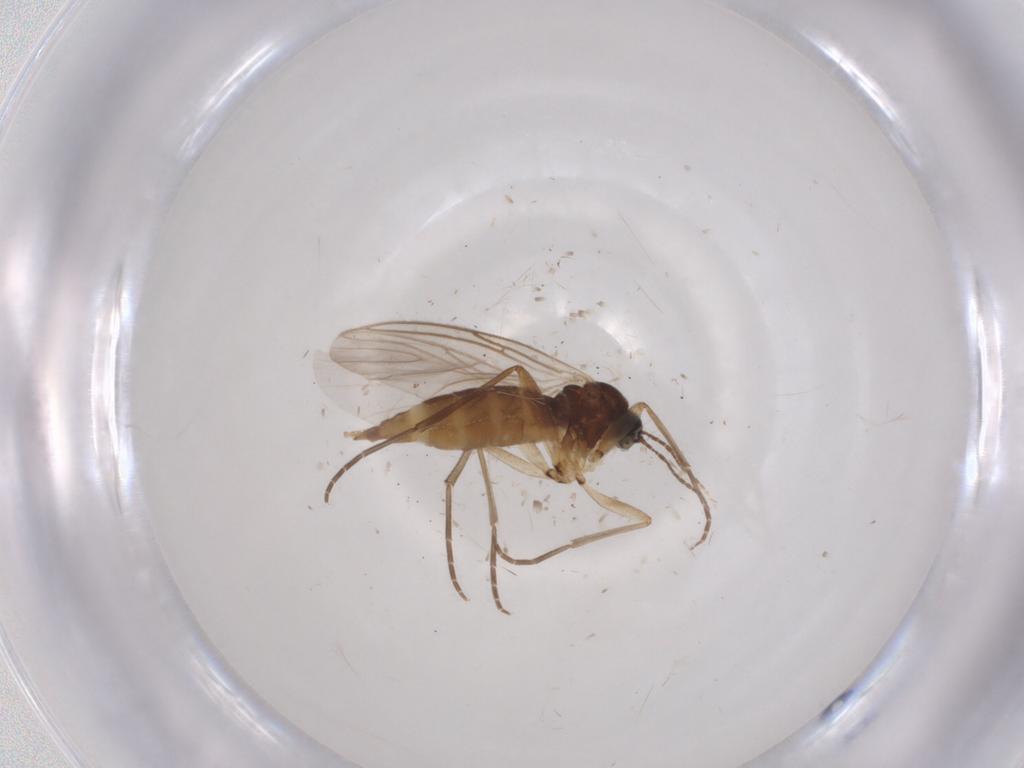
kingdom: Animalia
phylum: Arthropoda
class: Insecta
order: Diptera
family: Sciaridae
